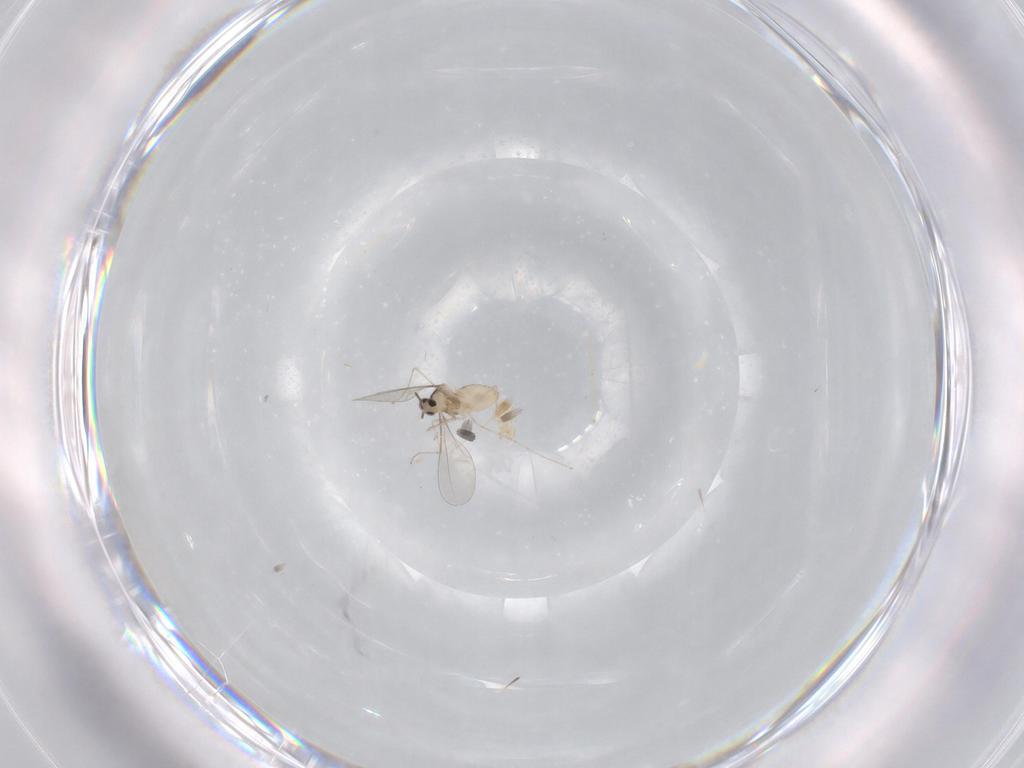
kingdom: Animalia
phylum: Arthropoda
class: Insecta
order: Diptera
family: Cecidomyiidae
